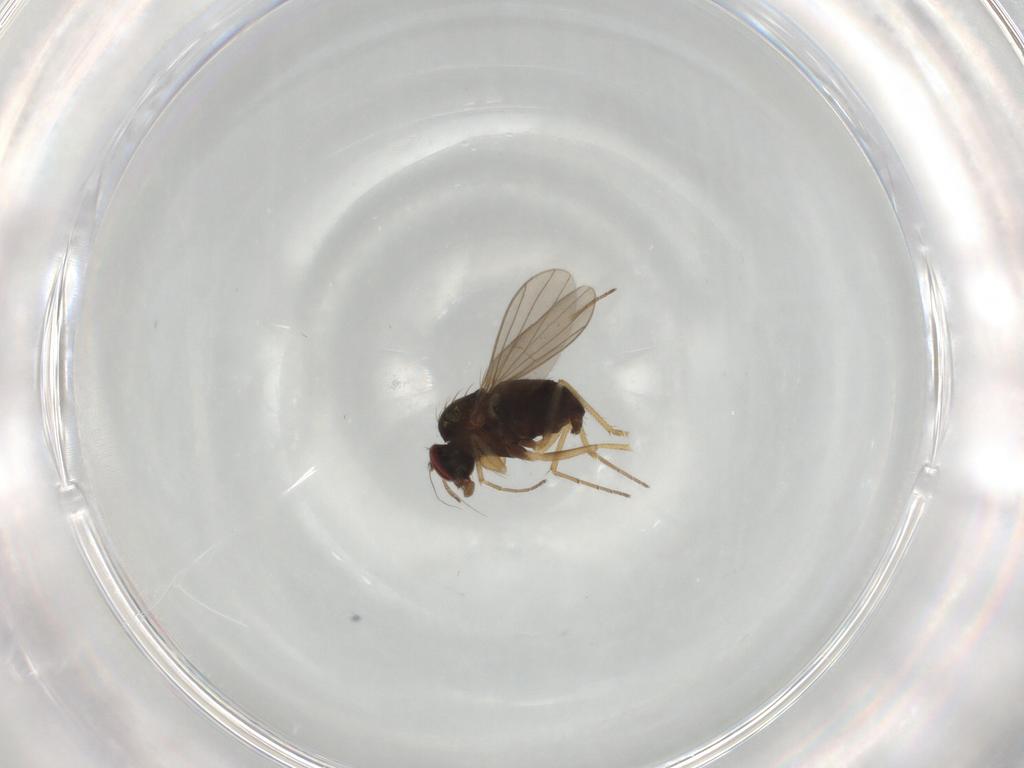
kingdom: Animalia
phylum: Arthropoda
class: Insecta
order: Diptera
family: Dolichopodidae
